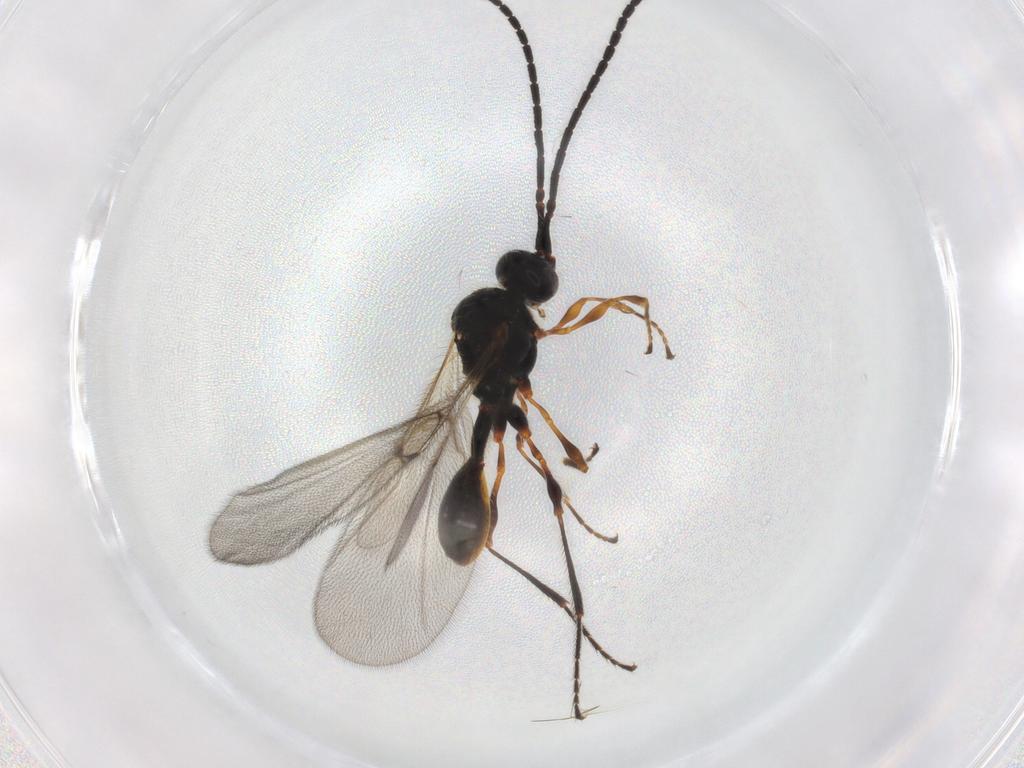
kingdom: Animalia
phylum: Arthropoda
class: Insecta
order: Hymenoptera
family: Diapriidae
